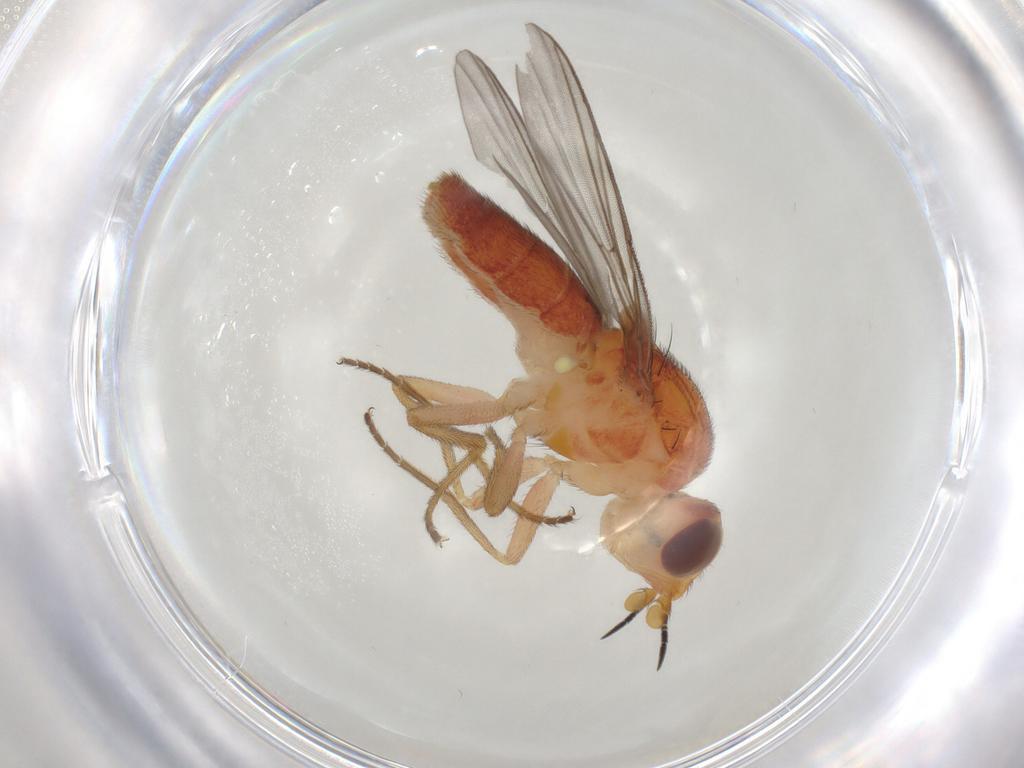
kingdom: Animalia
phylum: Arthropoda
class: Insecta
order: Diptera
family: Chloropidae
